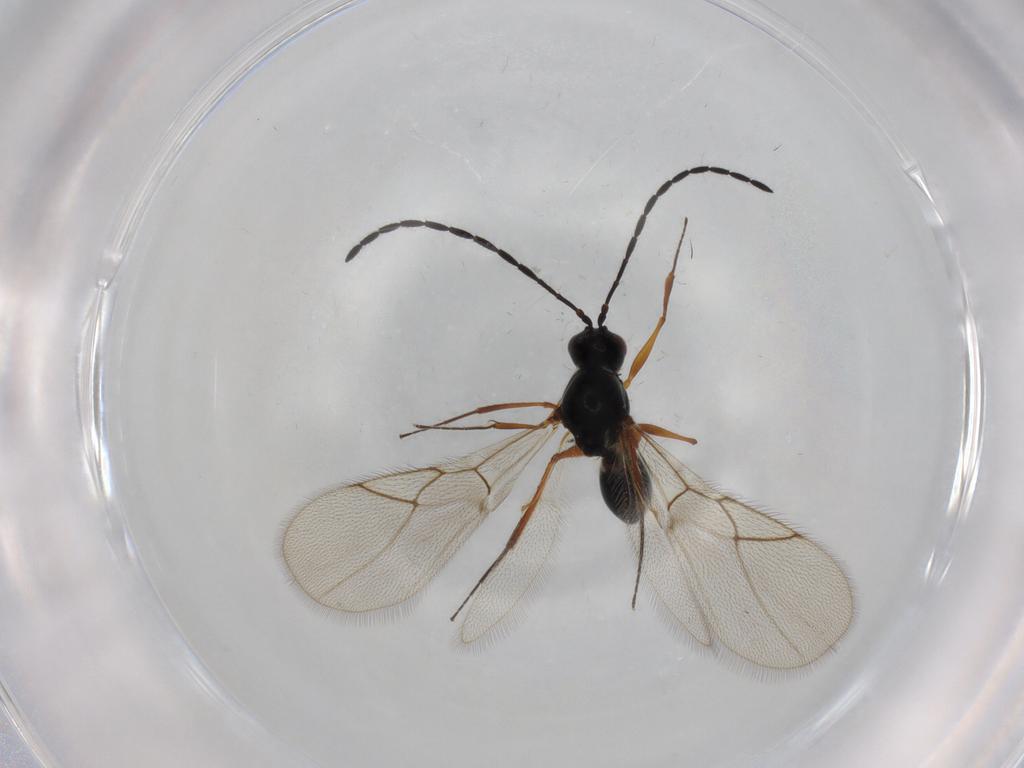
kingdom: Animalia
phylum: Arthropoda
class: Insecta
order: Hymenoptera
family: Figitidae
